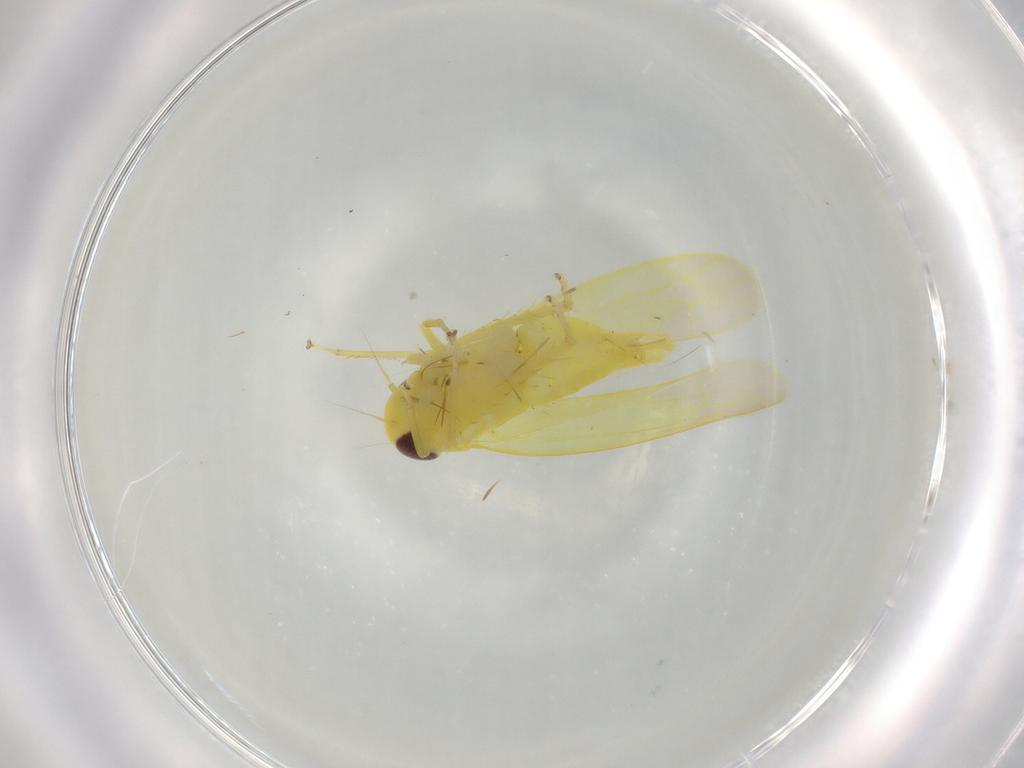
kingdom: Animalia
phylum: Arthropoda
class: Insecta
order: Hemiptera
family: Cicadellidae
